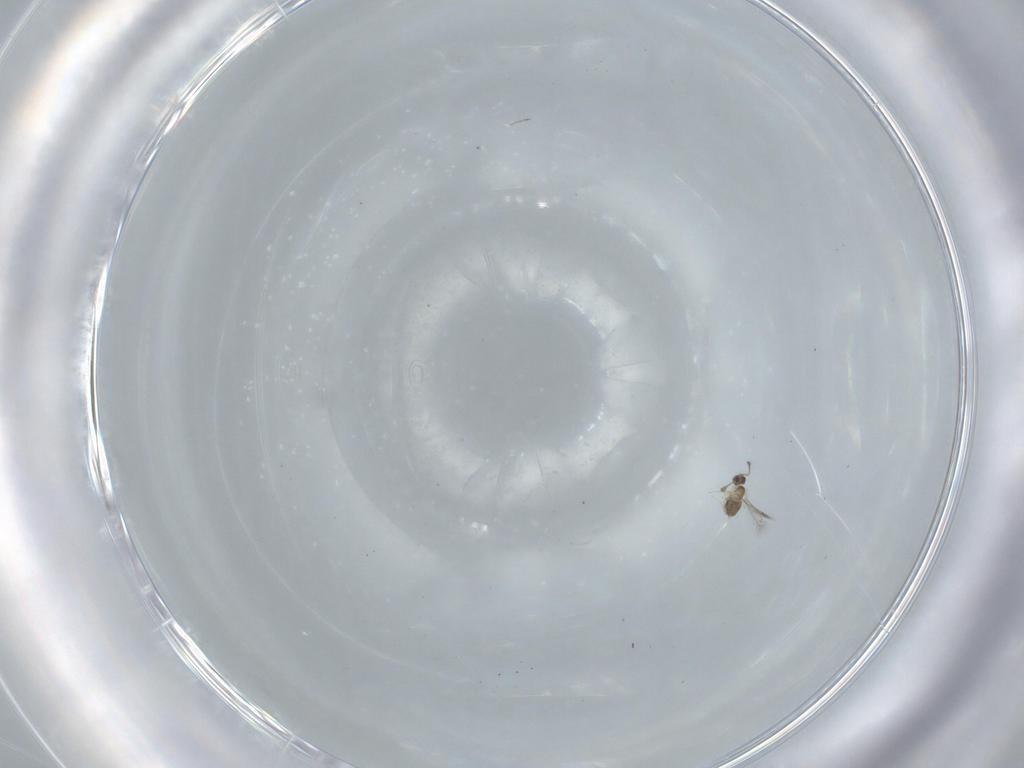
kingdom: Animalia
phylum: Arthropoda
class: Insecta
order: Hymenoptera
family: Mymaridae
